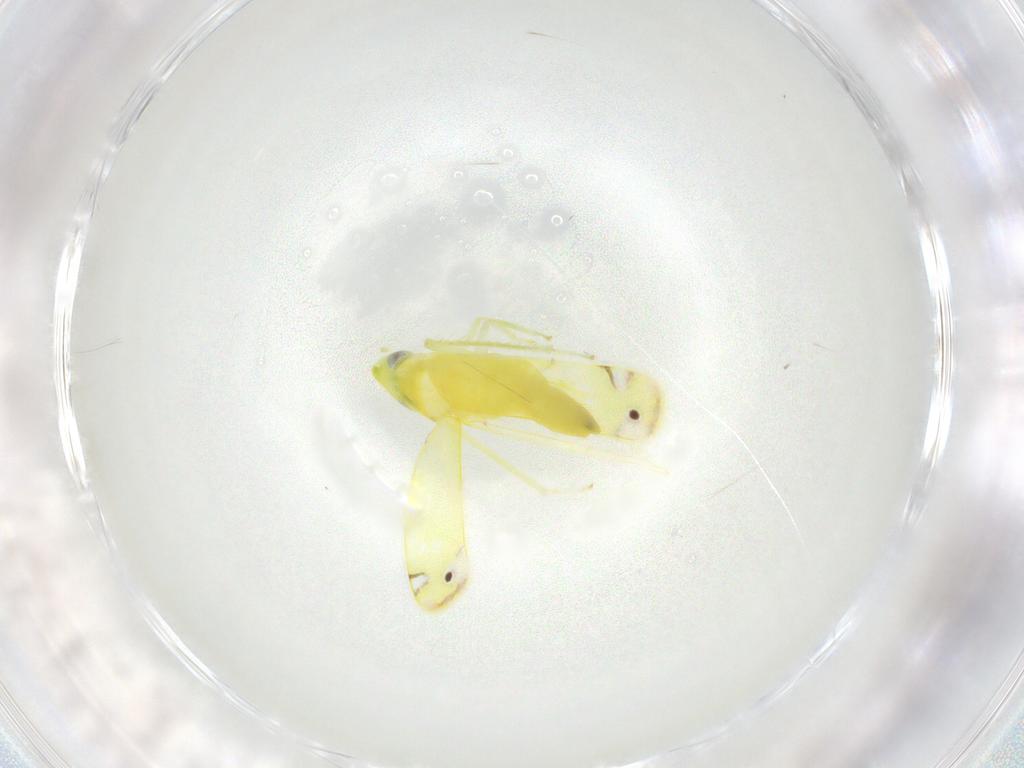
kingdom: Animalia
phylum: Arthropoda
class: Insecta
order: Hemiptera
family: Cicadellidae
